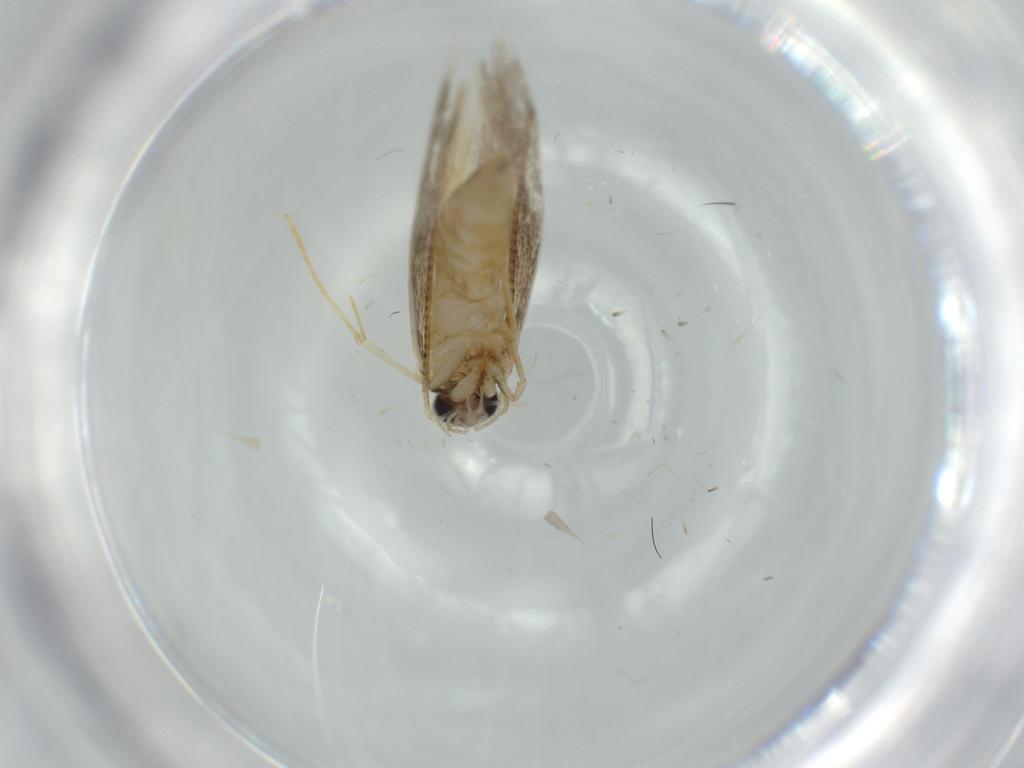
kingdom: Animalia
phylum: Arthropoda
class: Insecta
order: Lepidoptera
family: Tineidae
